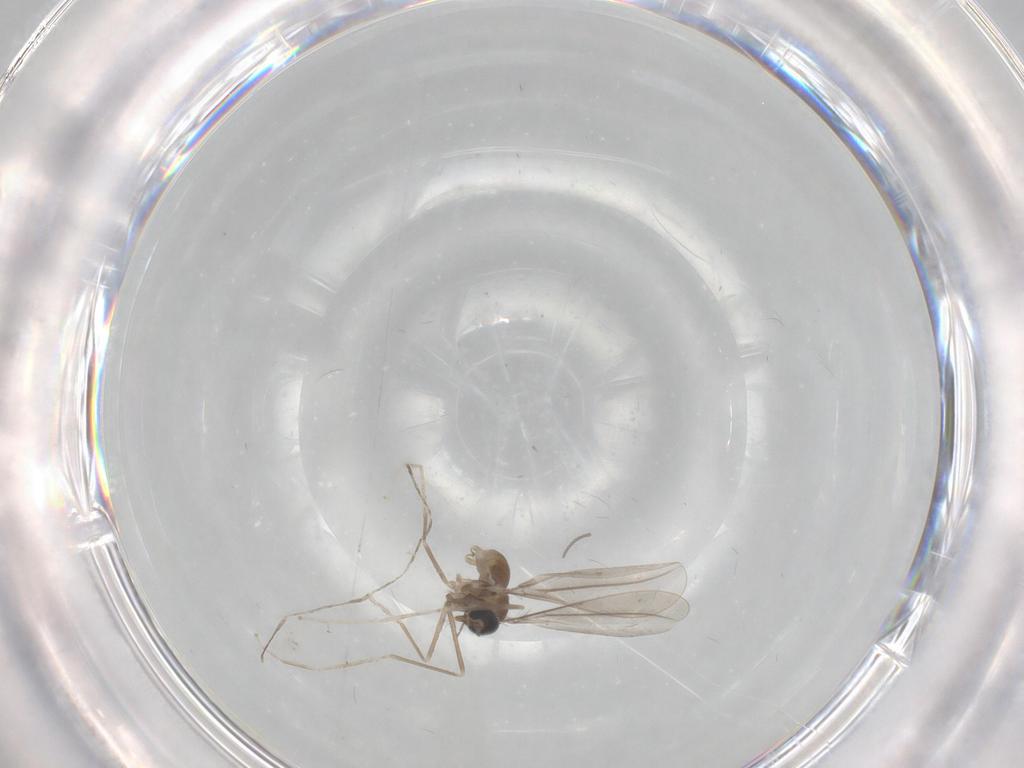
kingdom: Animalia
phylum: Arthropoda
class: Insecta
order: Diptera
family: Cecidomyiidae
